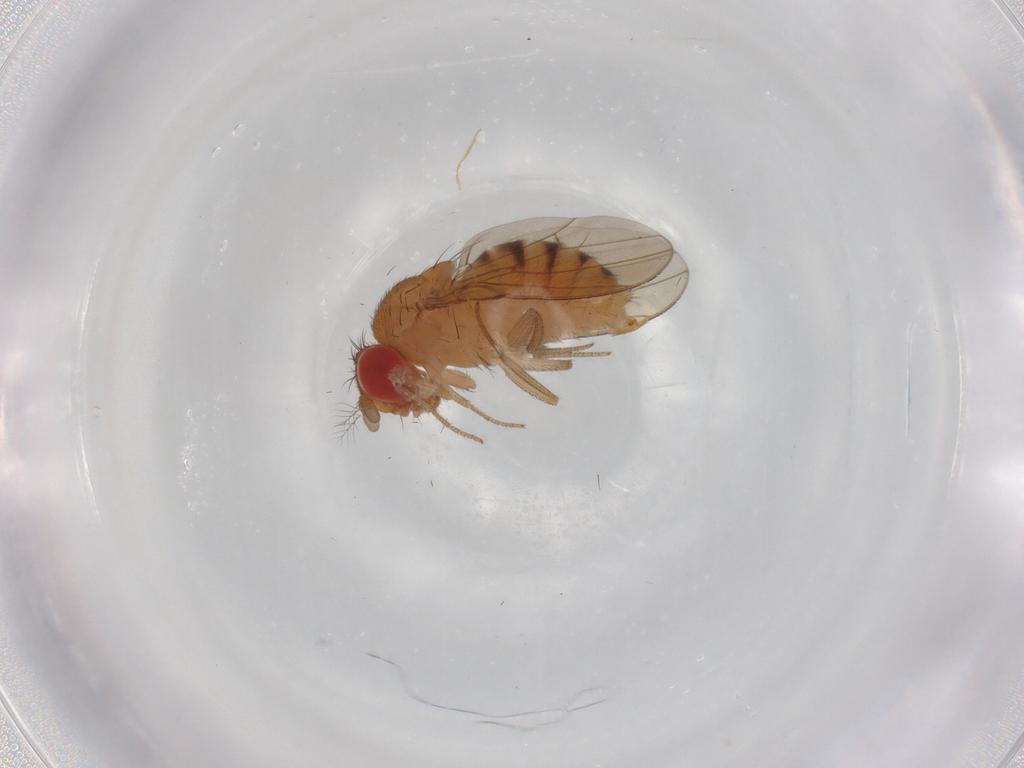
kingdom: Animalia
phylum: Arthropoda
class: Insecta
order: Diptera
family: Drosophilidae
